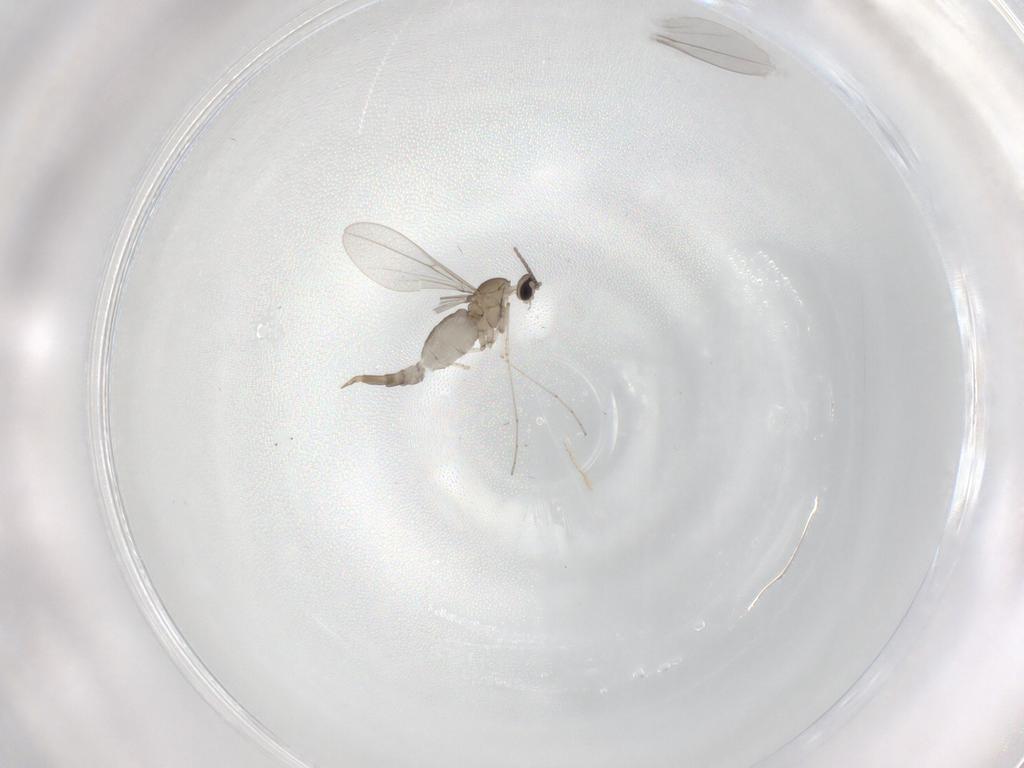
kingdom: Animalia
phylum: Arthropoda
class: Insecta
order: Diptera
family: Cecidomyiidae
